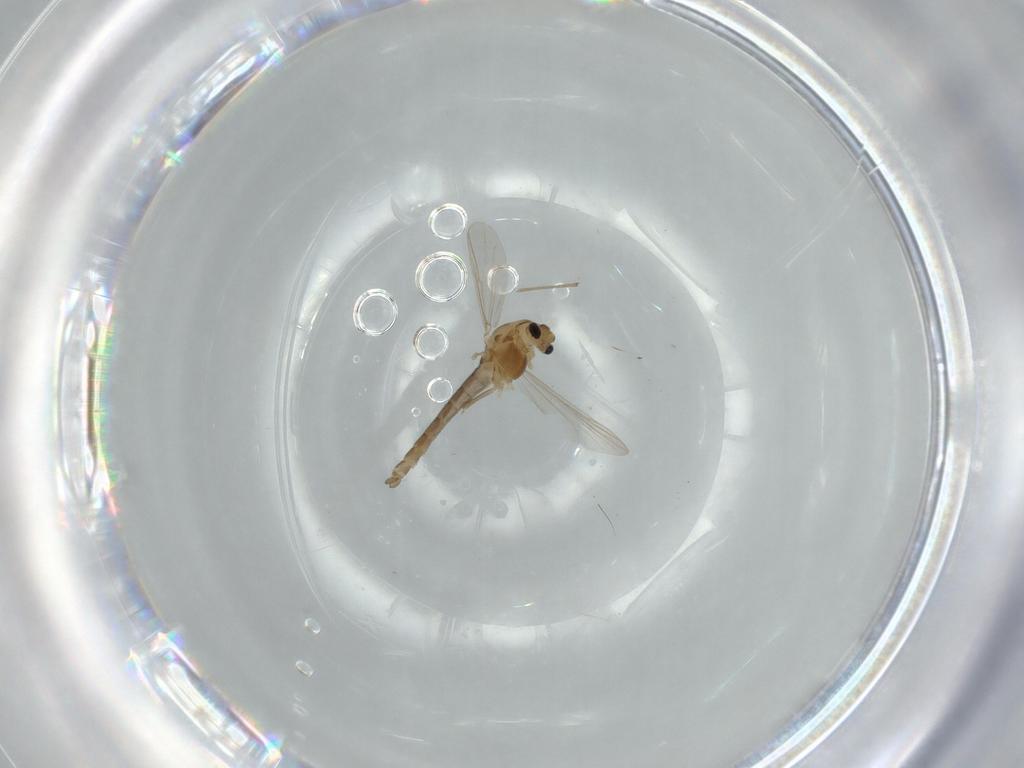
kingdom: Animalia
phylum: Arthropoda
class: Insecta
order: Diptera
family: Chironomidae
